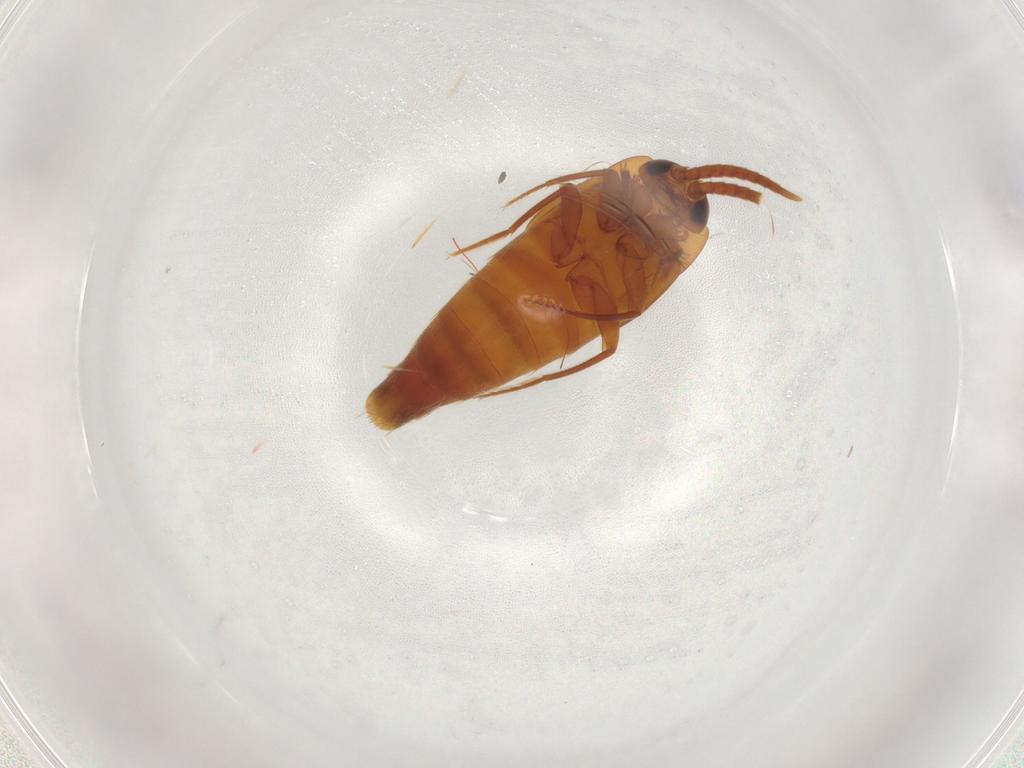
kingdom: Animalia
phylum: Arthropoda
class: Insecta
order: Coleoptera
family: Staphylinidae
